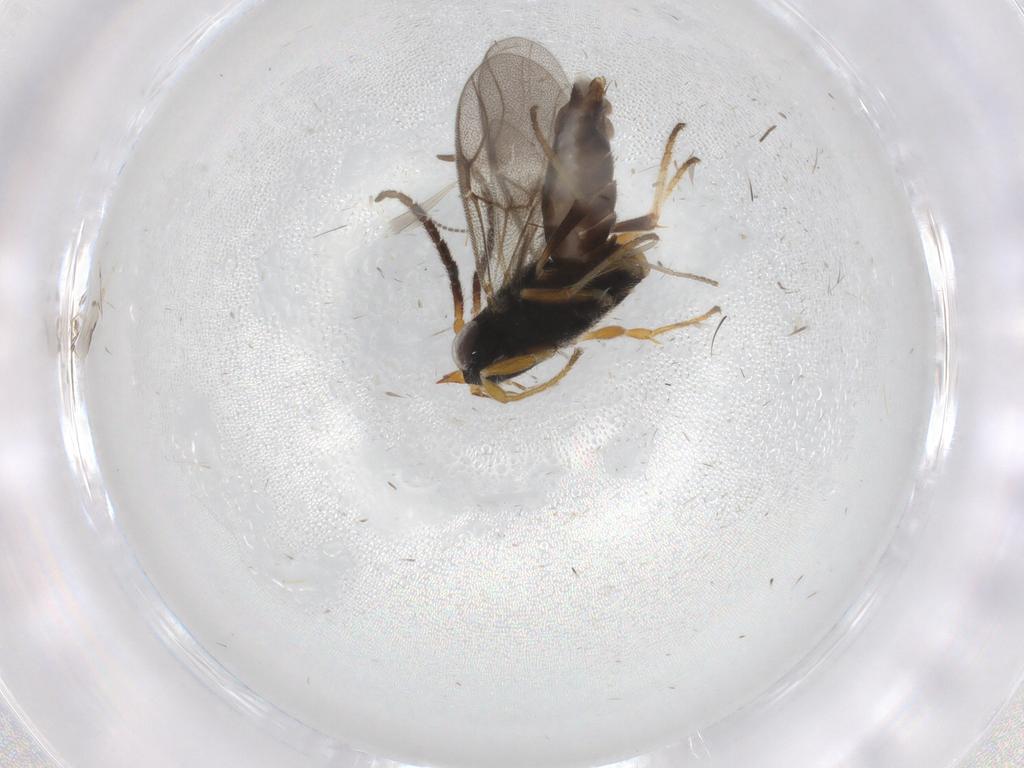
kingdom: Animalia
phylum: Arthropoda
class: Insecta
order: Hymenoptera
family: Dryinidae
